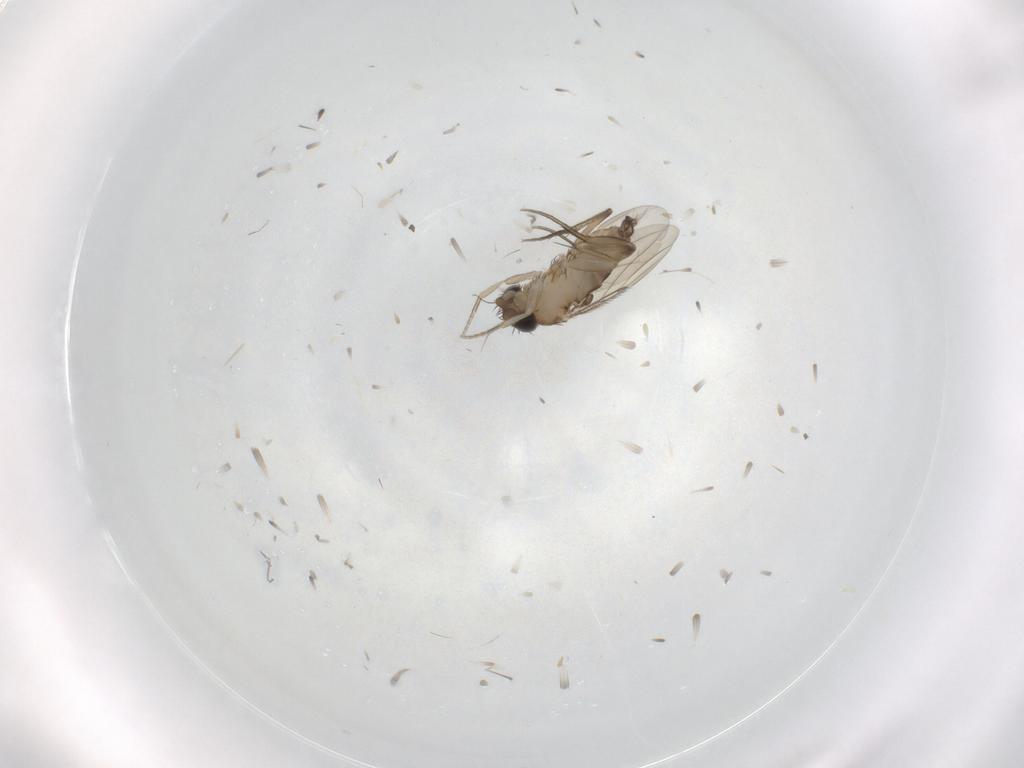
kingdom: Animalia
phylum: Arthropoda
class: Insecta
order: Diptera
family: Phoridae
